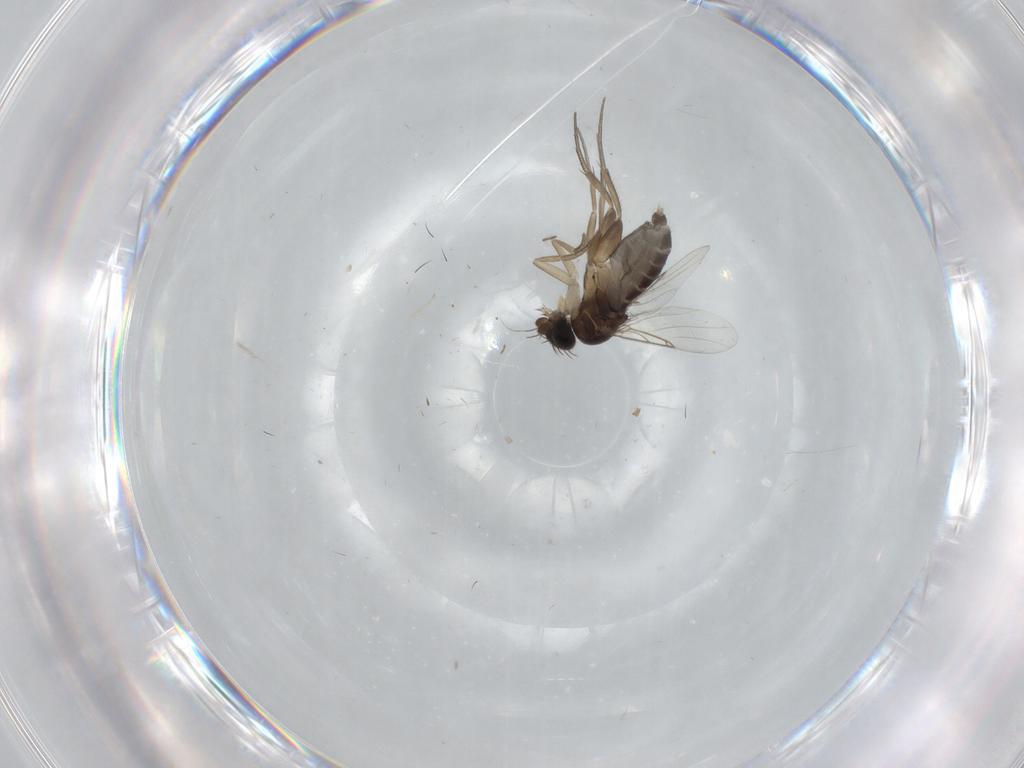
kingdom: Animalia
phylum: Arthropoda
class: Insecta
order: Diptera
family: Phoridae
